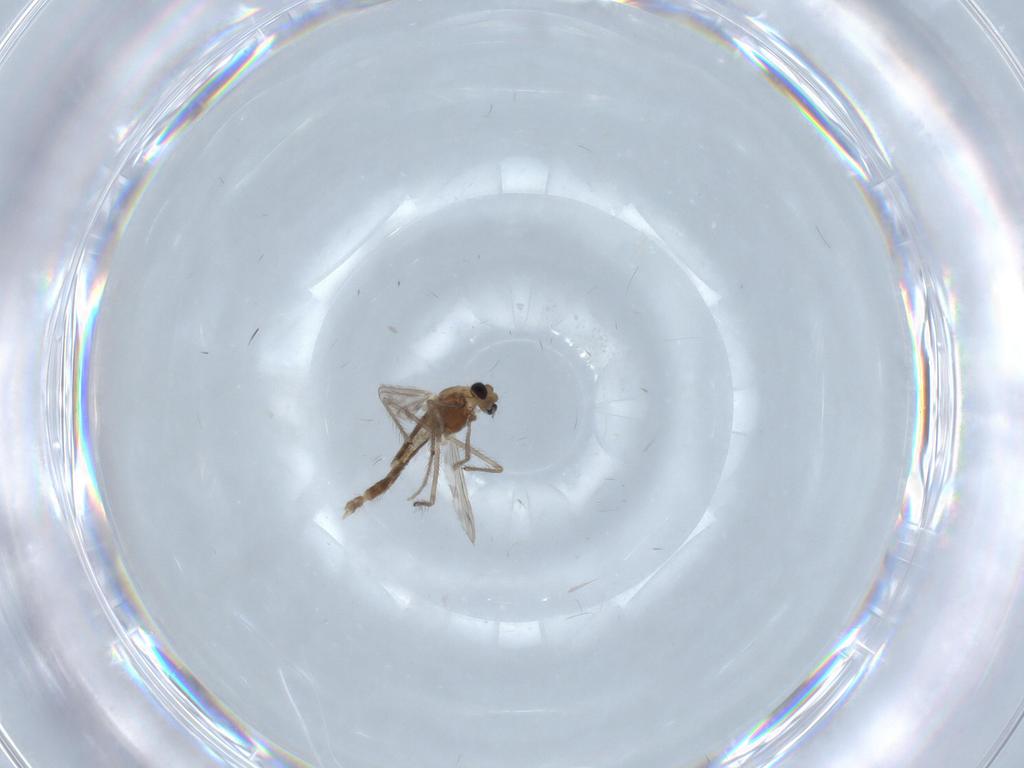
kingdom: Animalia
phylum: Arthropoda
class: Insecta
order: Diptera
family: Chironomidae
